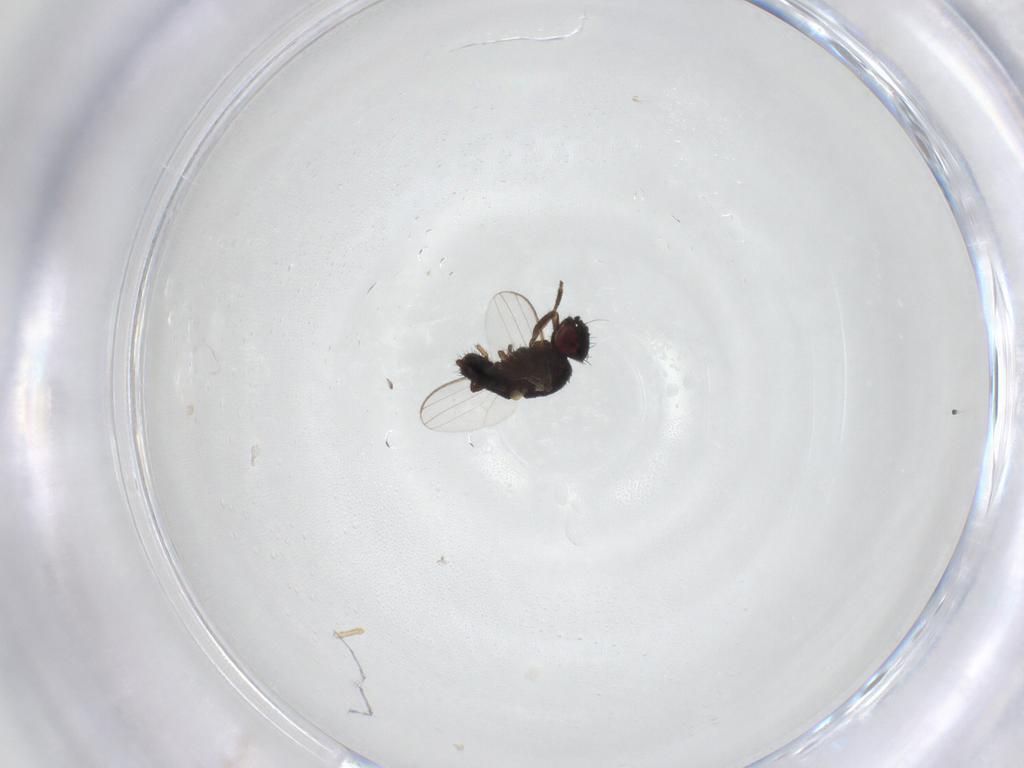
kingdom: Animalia
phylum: Arthropoda
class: Insecta
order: Diptera
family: Milichiidae
